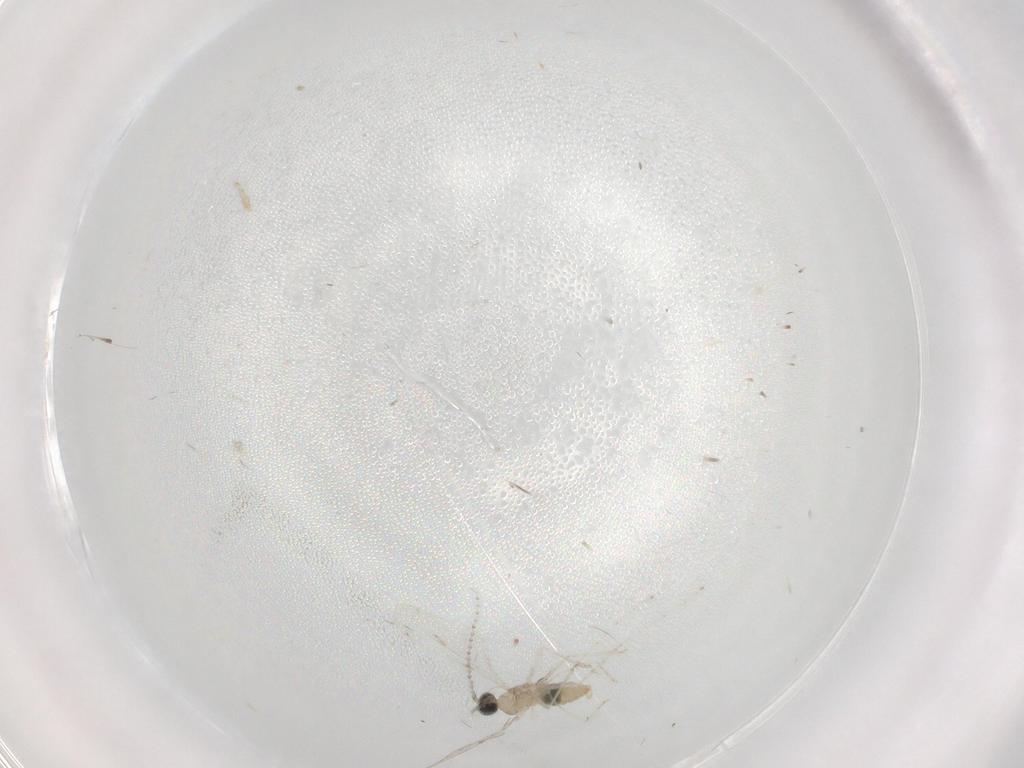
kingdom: Animalia
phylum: Arthropoda
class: Insecta
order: Diptera
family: Cecidomyiidae
